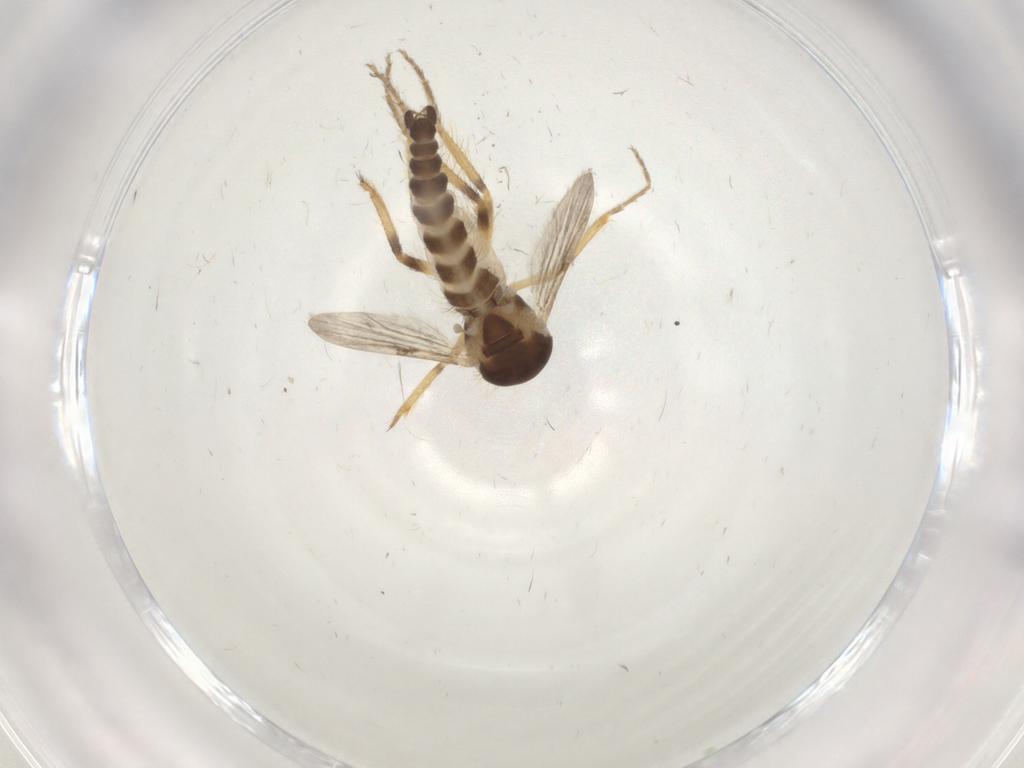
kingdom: Animalia
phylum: Arthropoda
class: Insecta
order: Diptera
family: Ceratopogonidae
